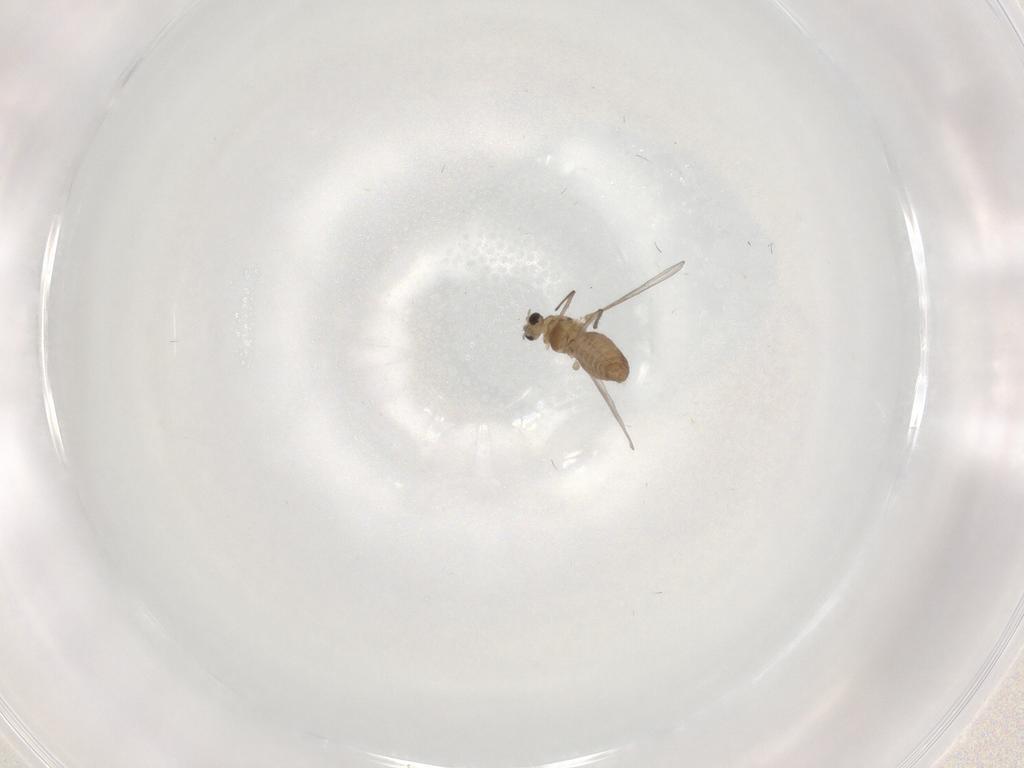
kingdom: Animalia
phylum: Arthropoda
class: Insecta
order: Diptera
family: Chironomidae
